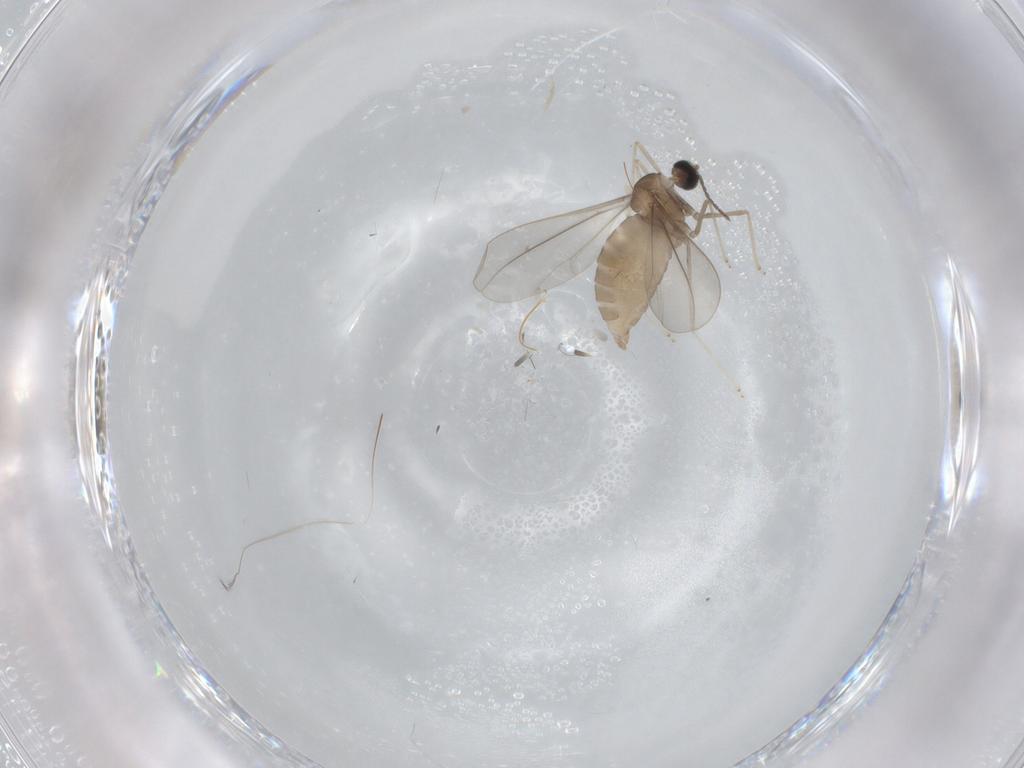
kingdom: Animalia
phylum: Arthropoda
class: Insecta
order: Diptera
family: Cecidomyiidae
